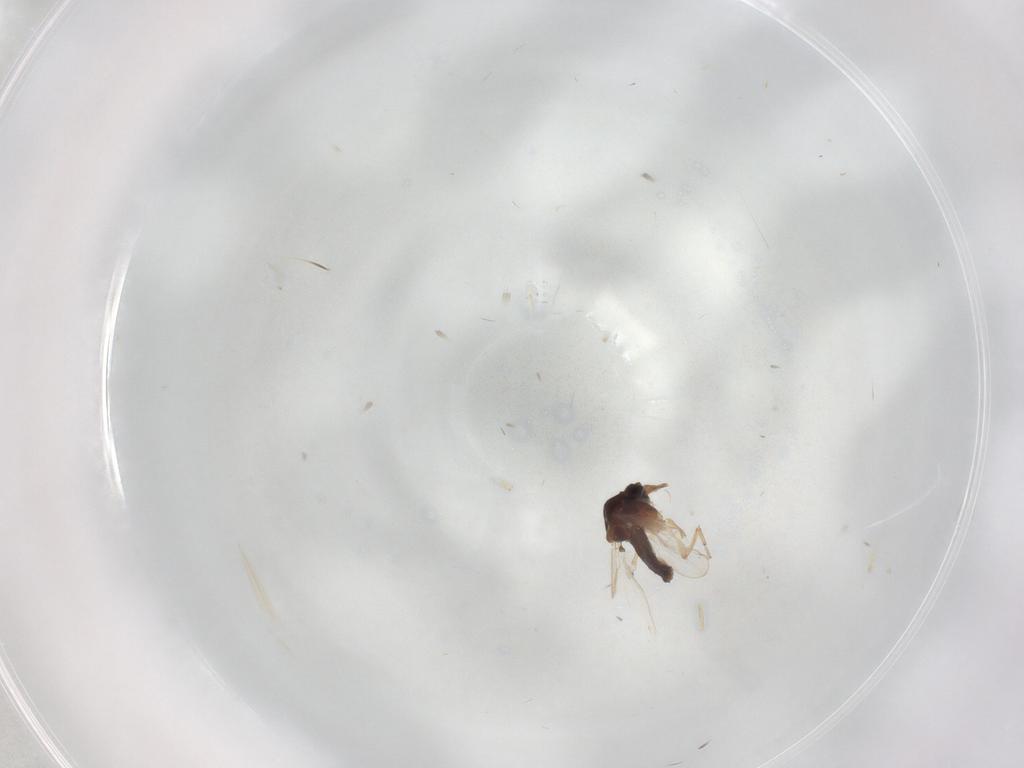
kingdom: Animalia
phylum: Arthropoda
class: Insecta
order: Diptera
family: Ceratopogonidae
